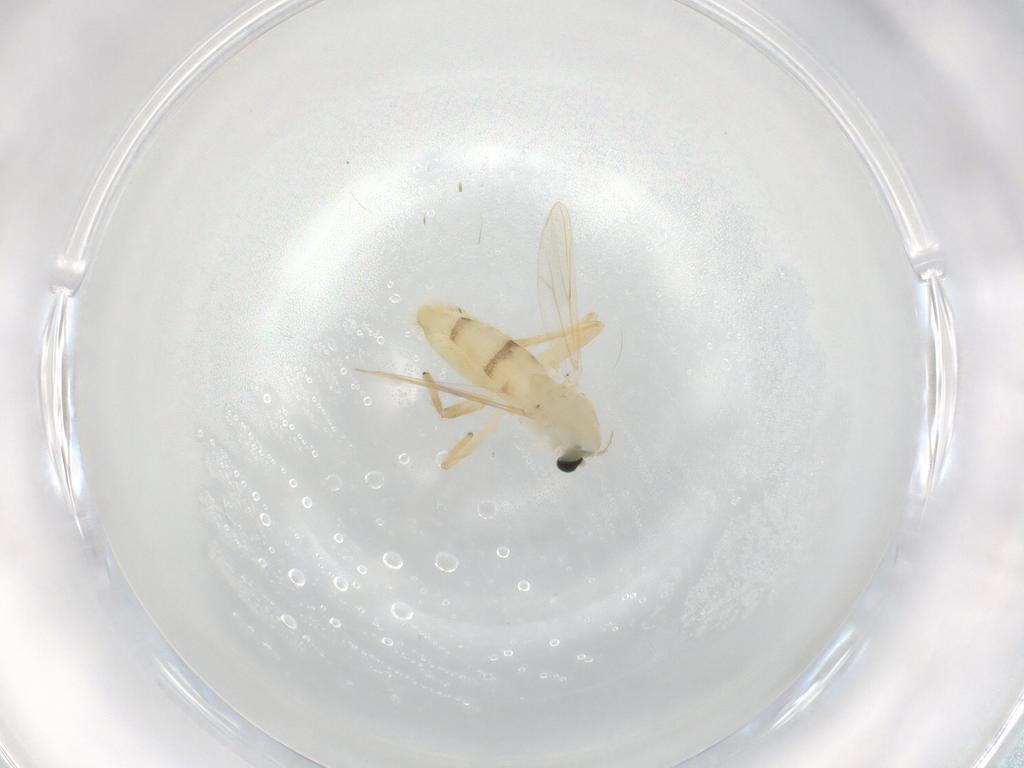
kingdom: Animalia
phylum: Arthropoda
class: Insecta
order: Diptera
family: Chironomidae
